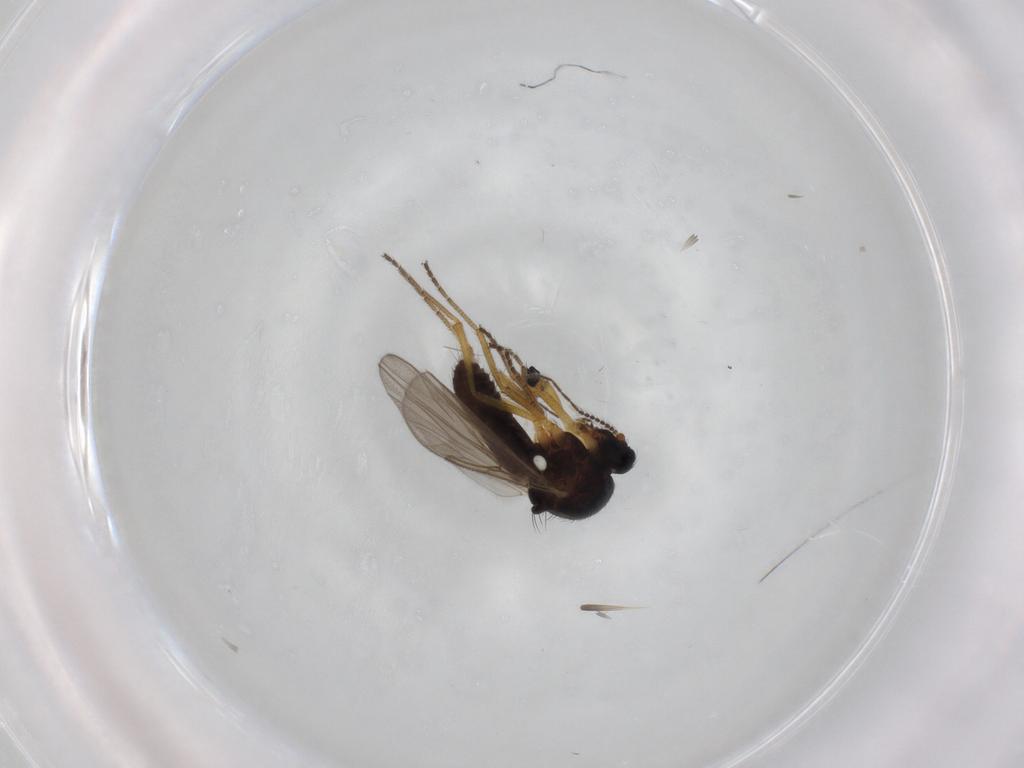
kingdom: Animalia
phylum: Arthropoda
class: Insecta
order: Diptera
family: Ceratopogonidae
